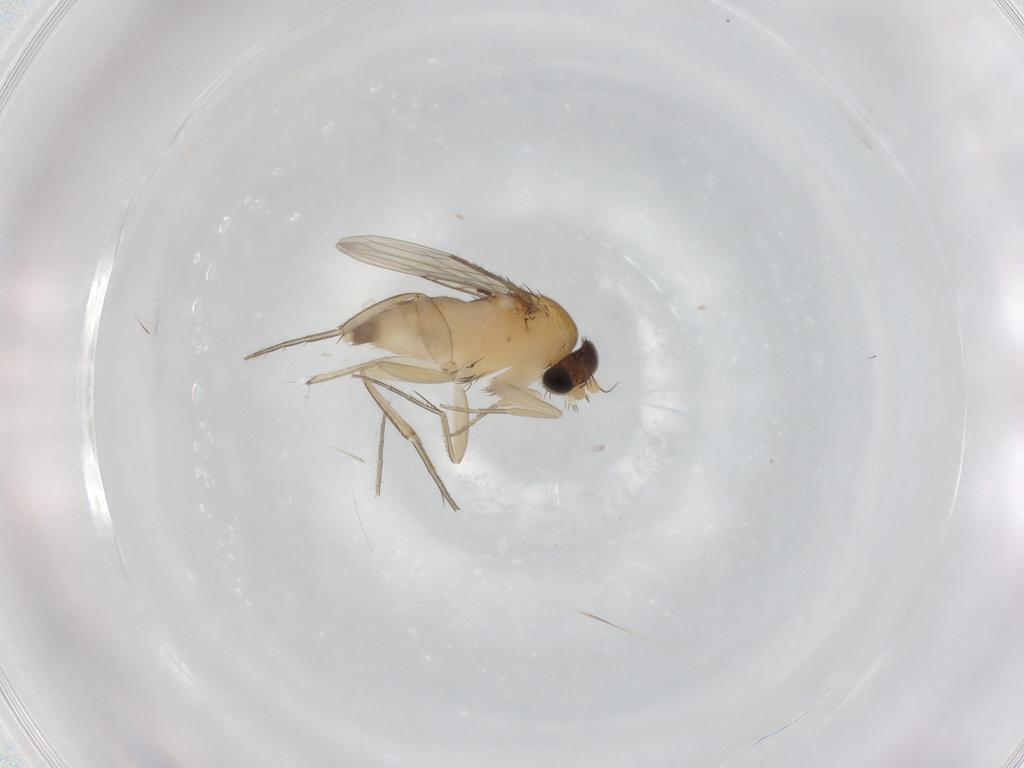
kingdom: Animalia
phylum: Arthropoda
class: Insecta
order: Diptera
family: Phoridae
